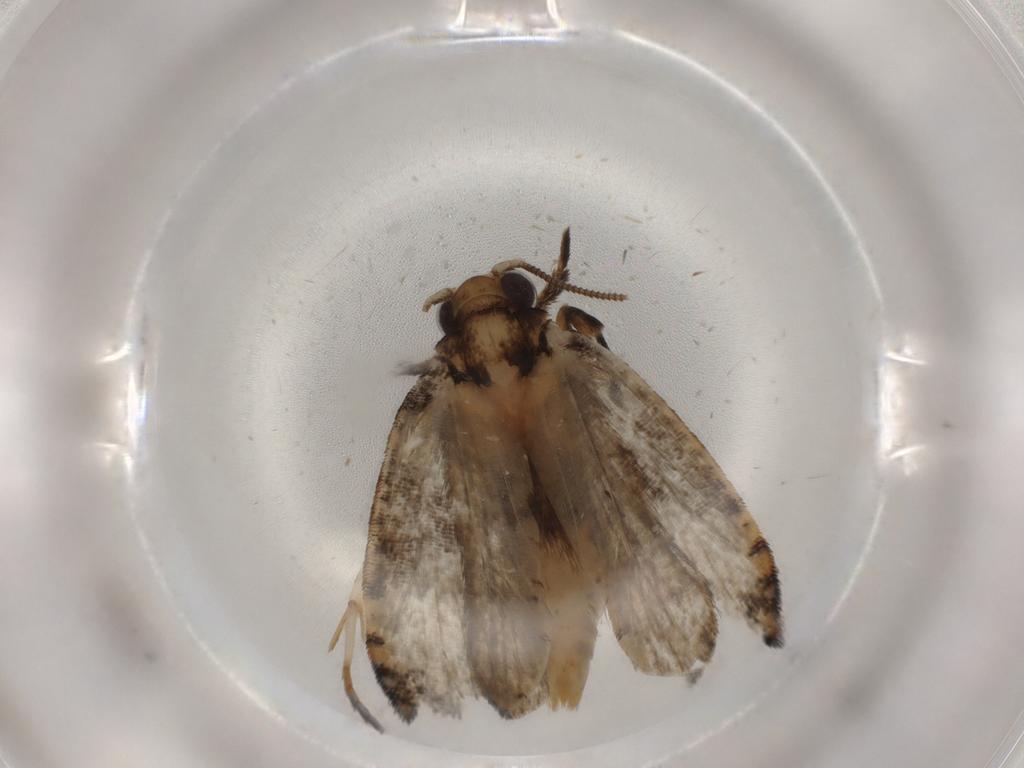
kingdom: Animalia
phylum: Arthropoda
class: Insecta
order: Lepidoptera
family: Tineidae
